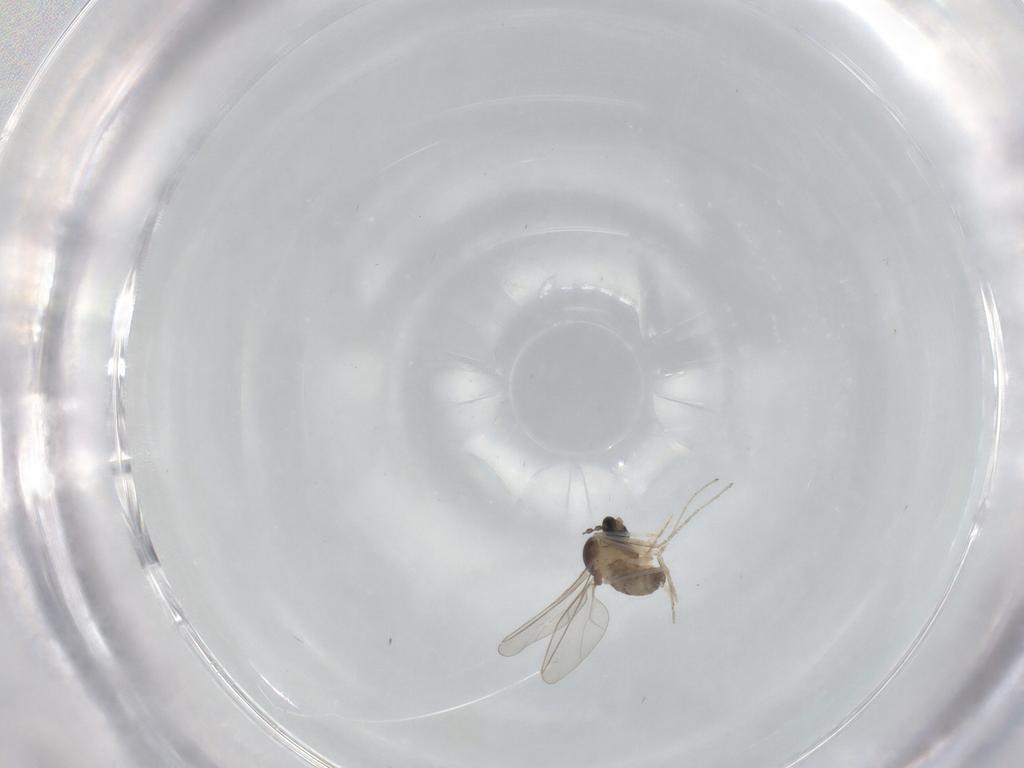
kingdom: Animalia
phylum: Arthropoda
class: Insecta
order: Diptera
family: Cecidomyiidae
